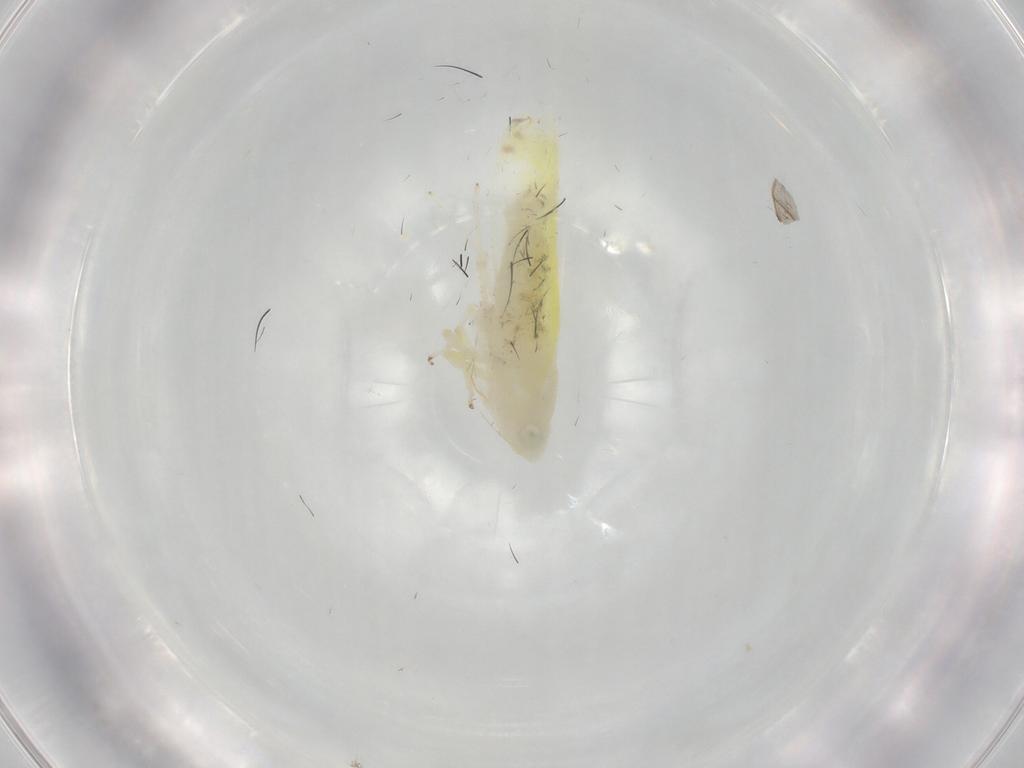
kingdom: Animalia
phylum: Arthropoda
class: Insecta
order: Hemiptera
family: Cicadellidae
